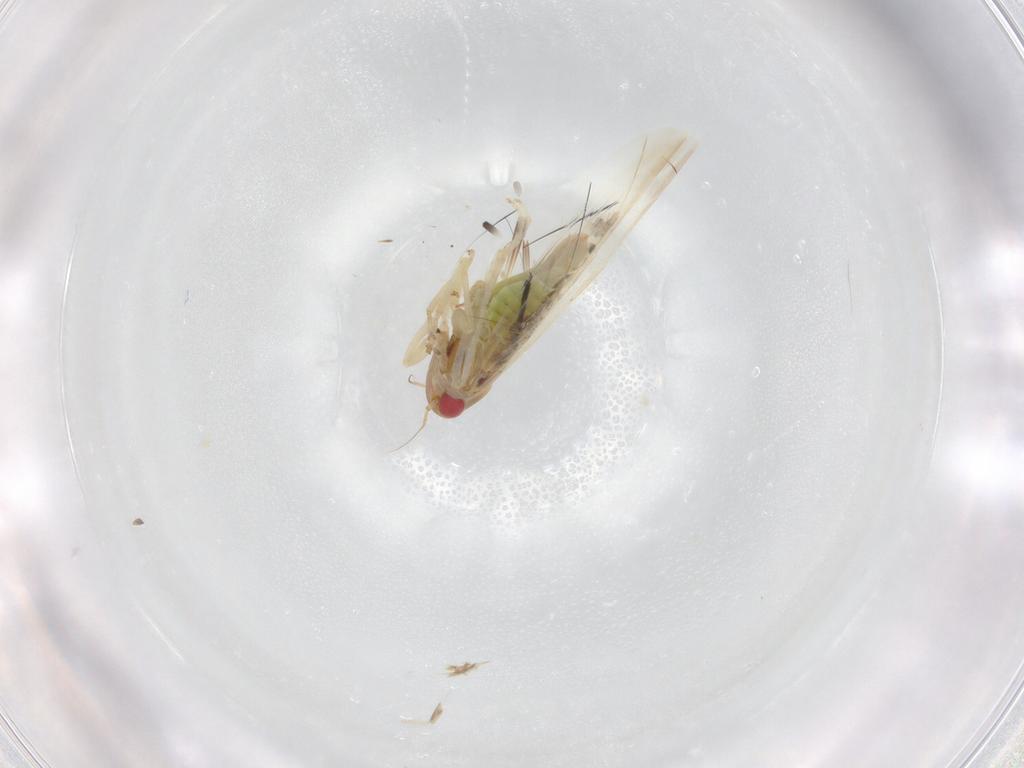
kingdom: Animalia
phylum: Arthropoda
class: Insecta
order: Hemiptera
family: Cicadellidae
